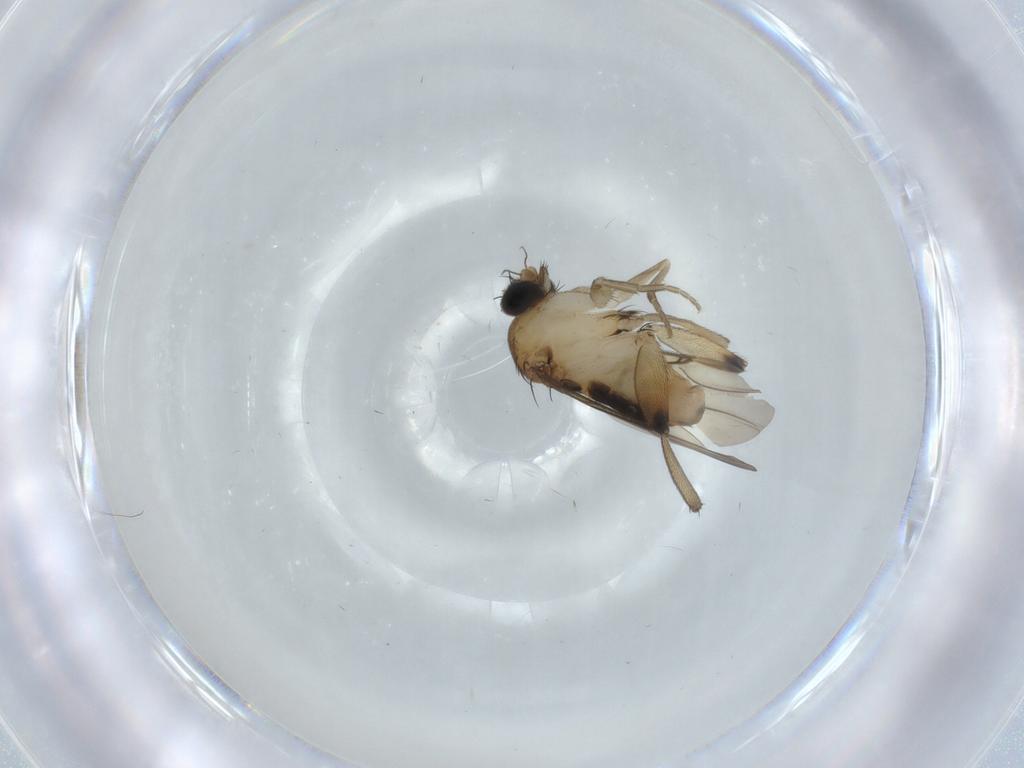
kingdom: Animalia
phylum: Arthropoda
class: Insecta
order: Diptera
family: Phoridae
